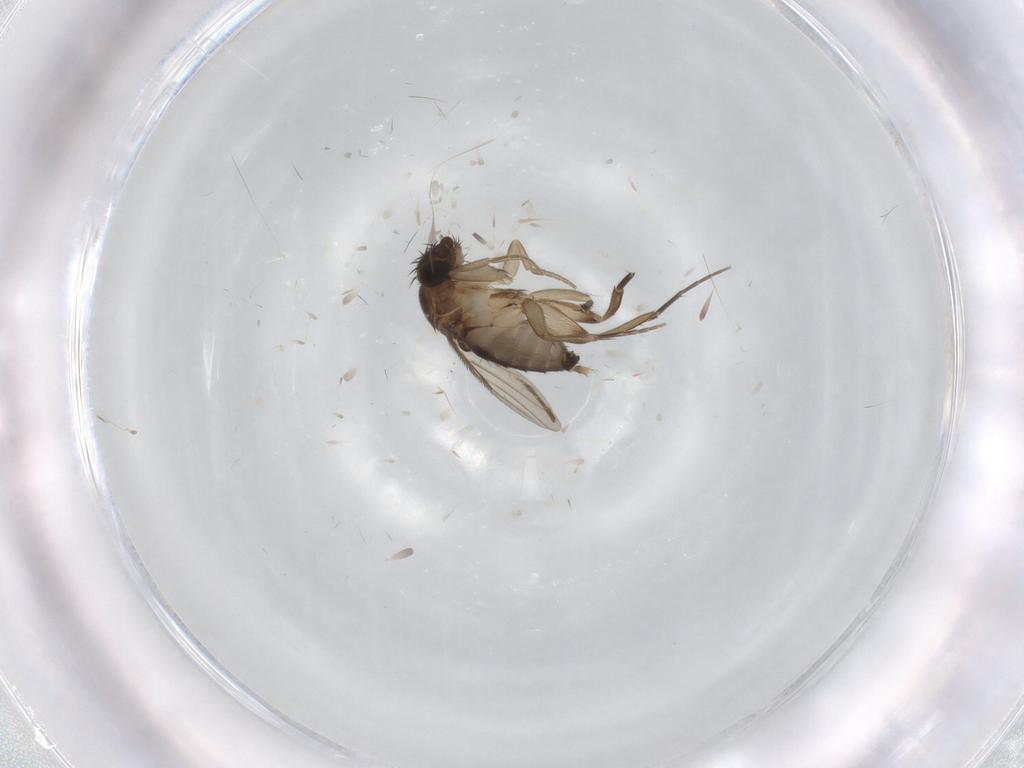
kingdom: Animalia
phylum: Arthropoda
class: Insecta
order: Diptera
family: Phoridae
